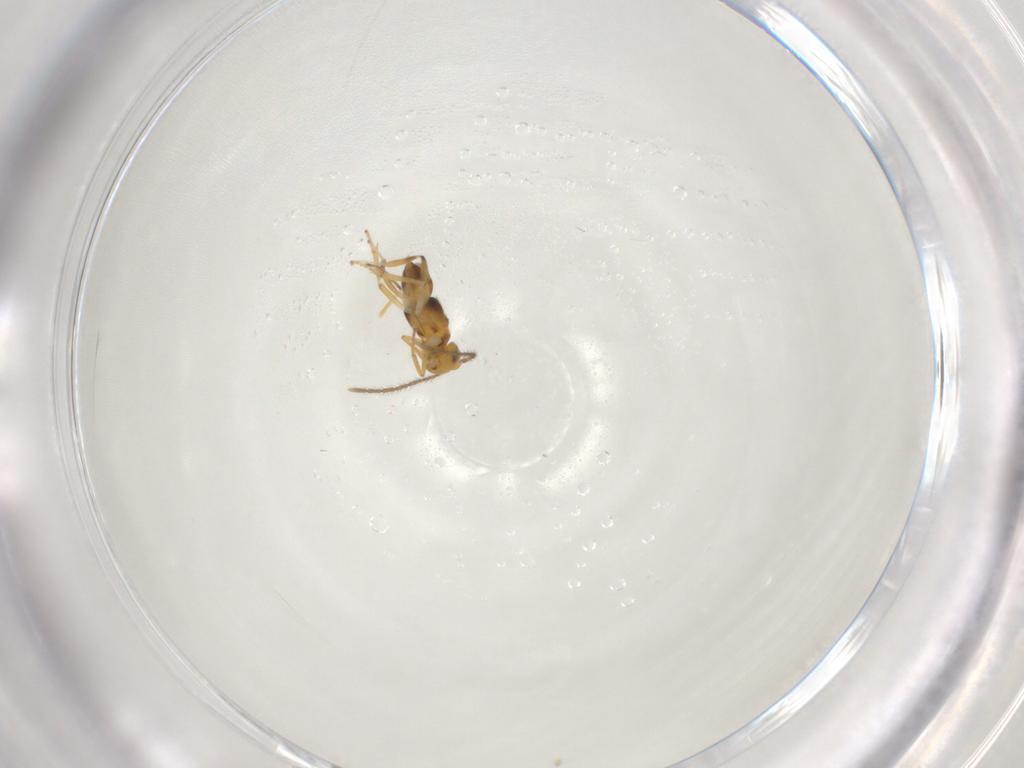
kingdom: Animalia
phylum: Arthropoda
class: Insecta
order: Hymenoptera
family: Encyrtidae
